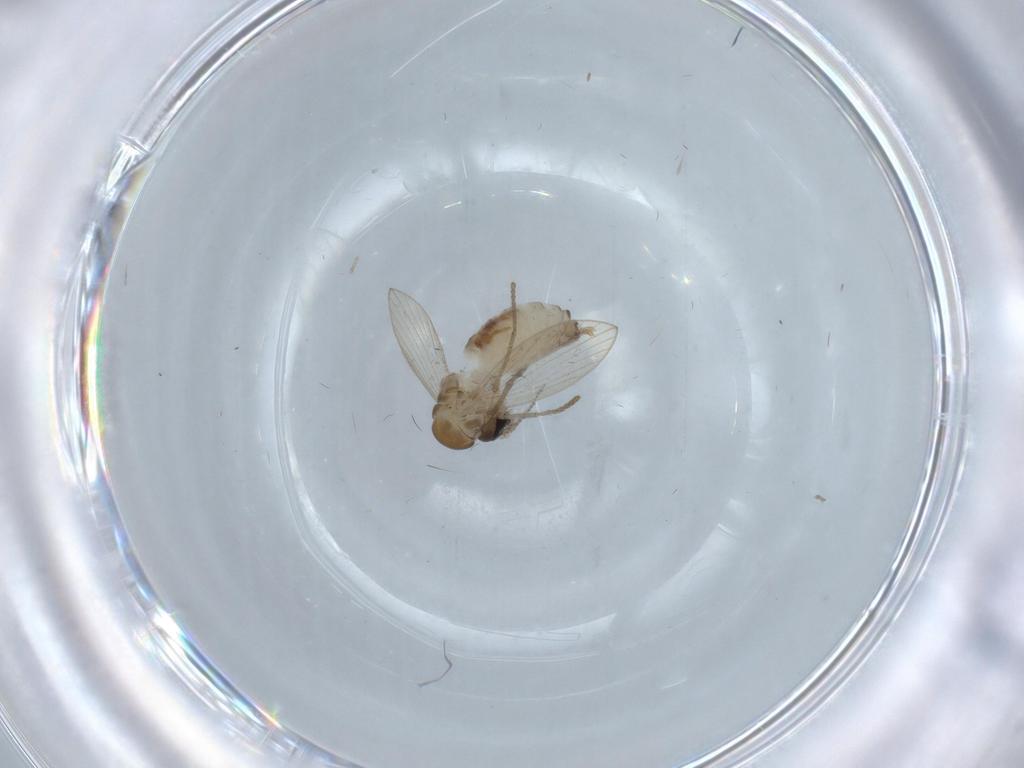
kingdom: Animalia
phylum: Arthropoda
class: Insecta
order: Diptera
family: Psychodidae
